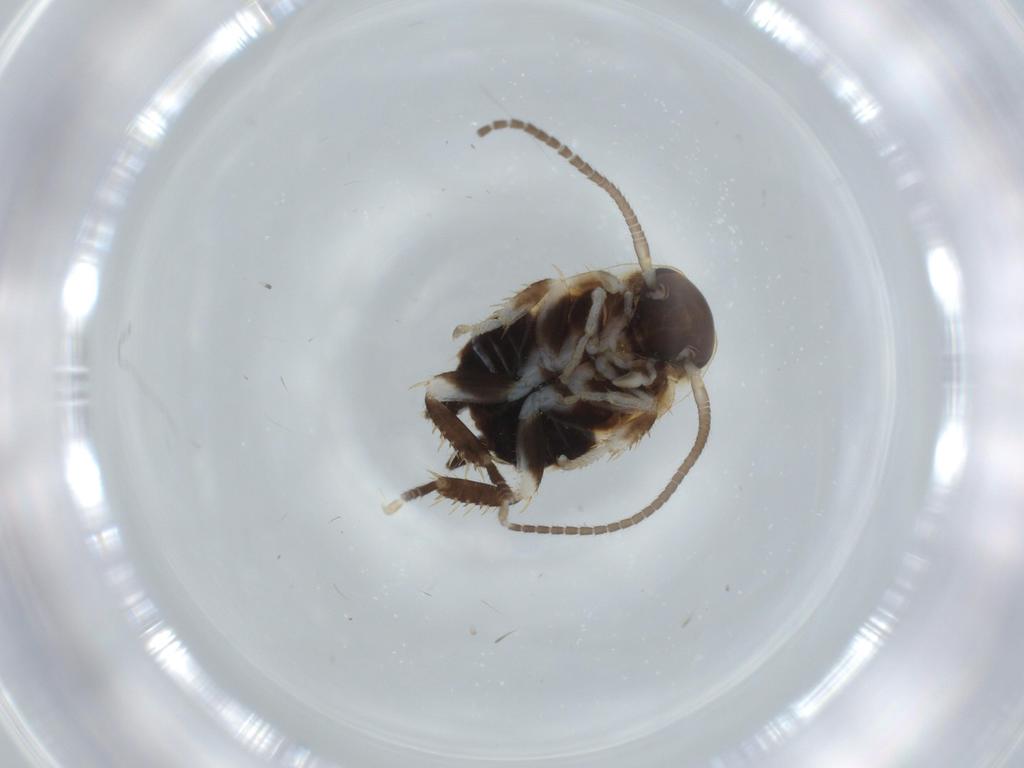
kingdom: Animalia
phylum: Arthropoda
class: Insecta
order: Blattodea
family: Ectobiidae
